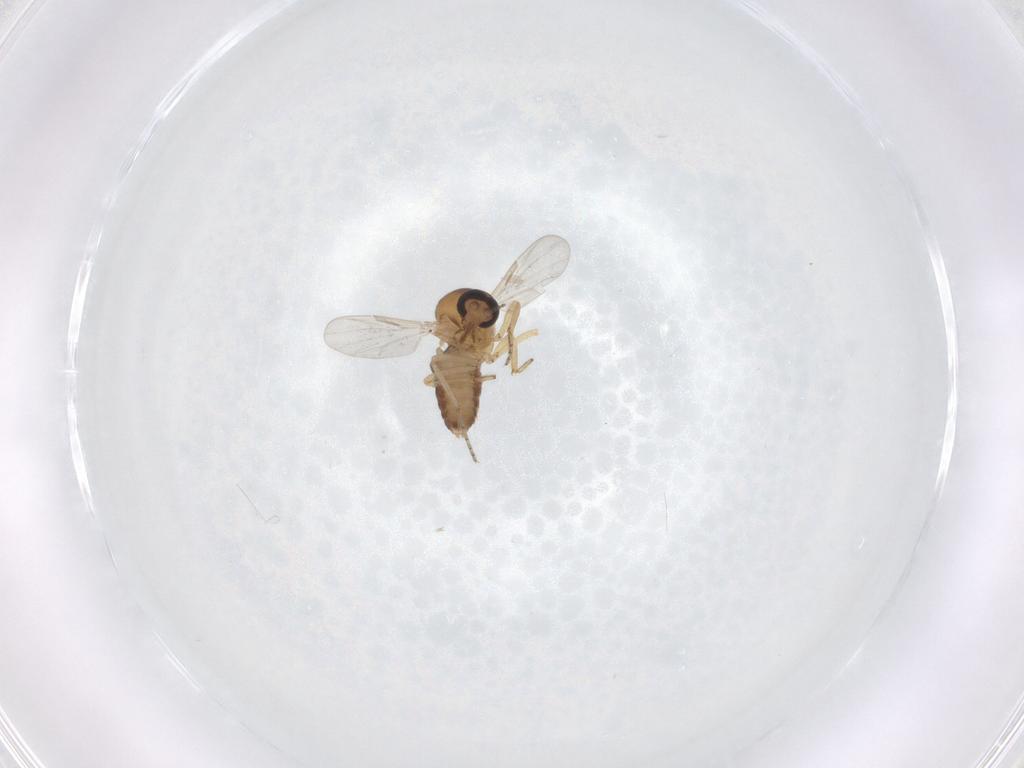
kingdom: Animalia
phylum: Arthropoda
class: Insecta
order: Diptera
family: Ceratopogonidae
